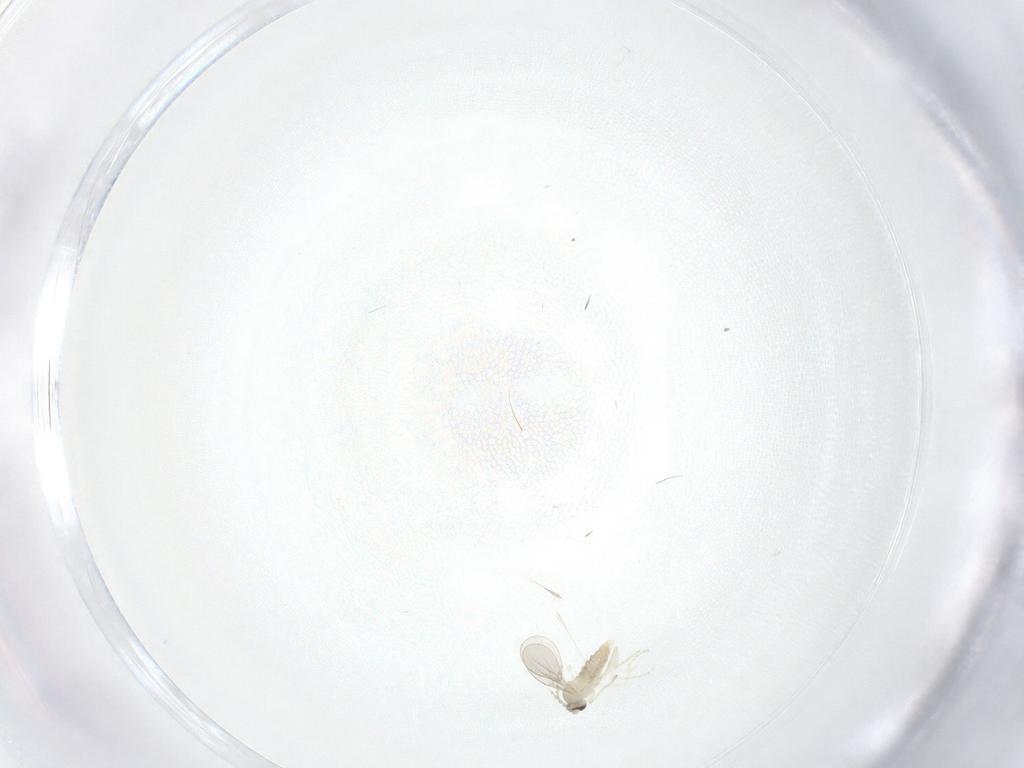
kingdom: Animalia
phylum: Arthropoda
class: Insecta
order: Diptera
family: Cecidomyiidae
